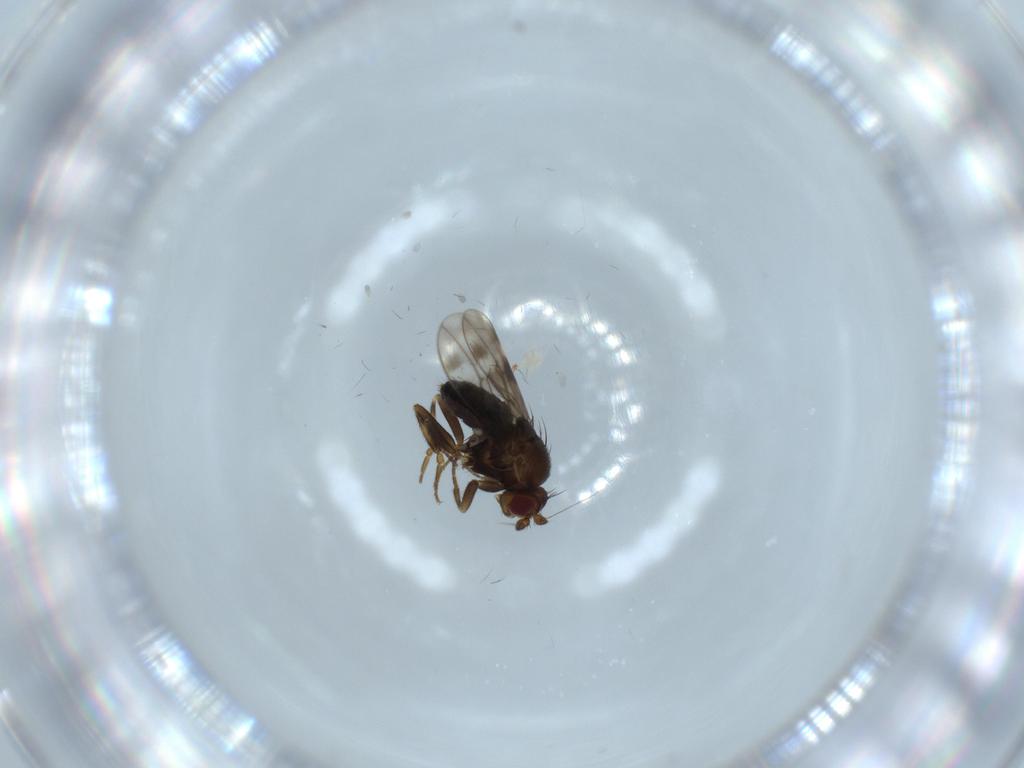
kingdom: Animalia
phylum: Arthropoda
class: Insecta
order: Diptera
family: Sphaeroceridae
